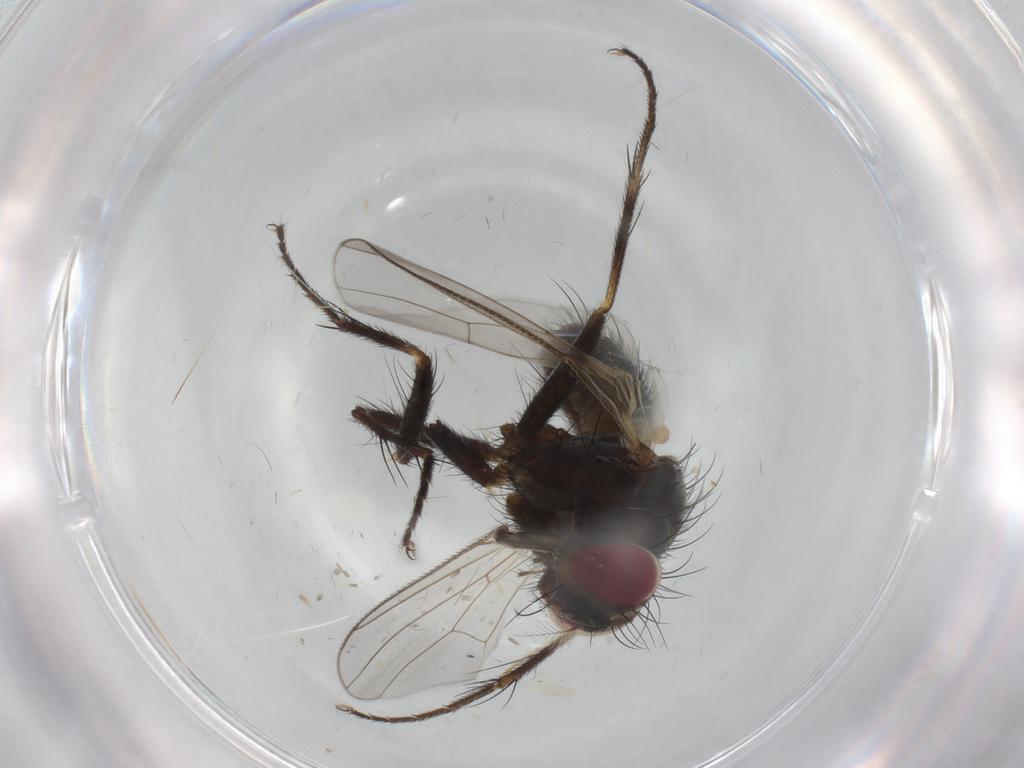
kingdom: Animalia
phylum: Arthropoda
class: Insecta
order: Diptera
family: Muscidae
